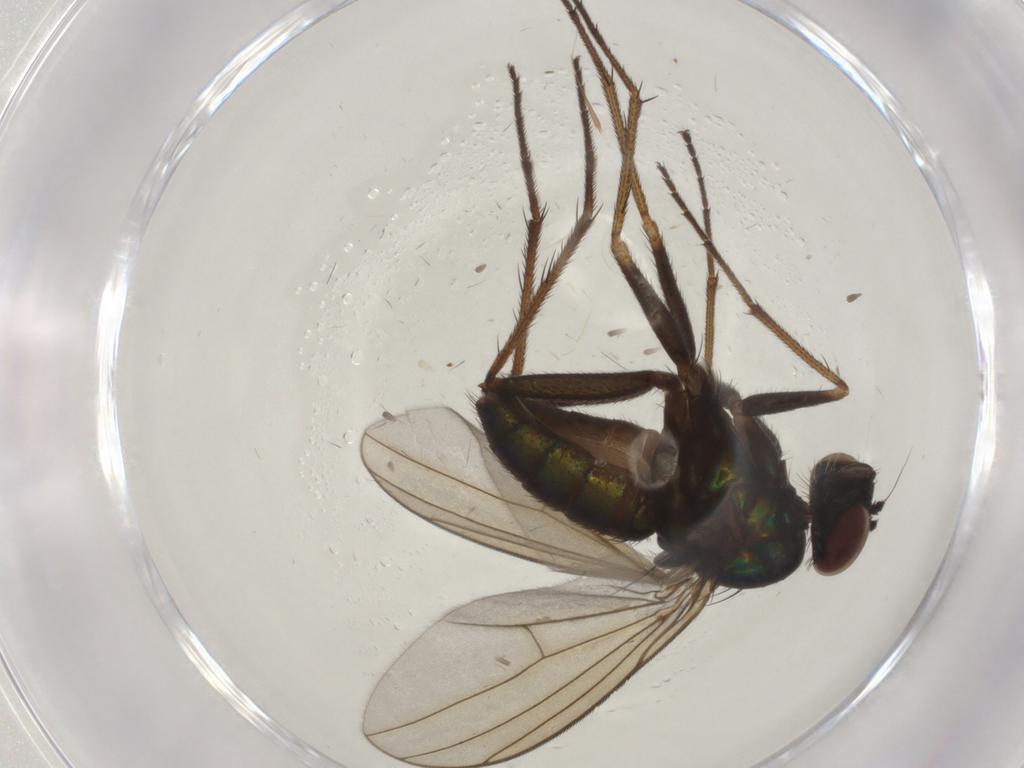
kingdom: Animalia
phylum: Arthropoda
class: Insecta
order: Diptera
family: Dolichopodidae
